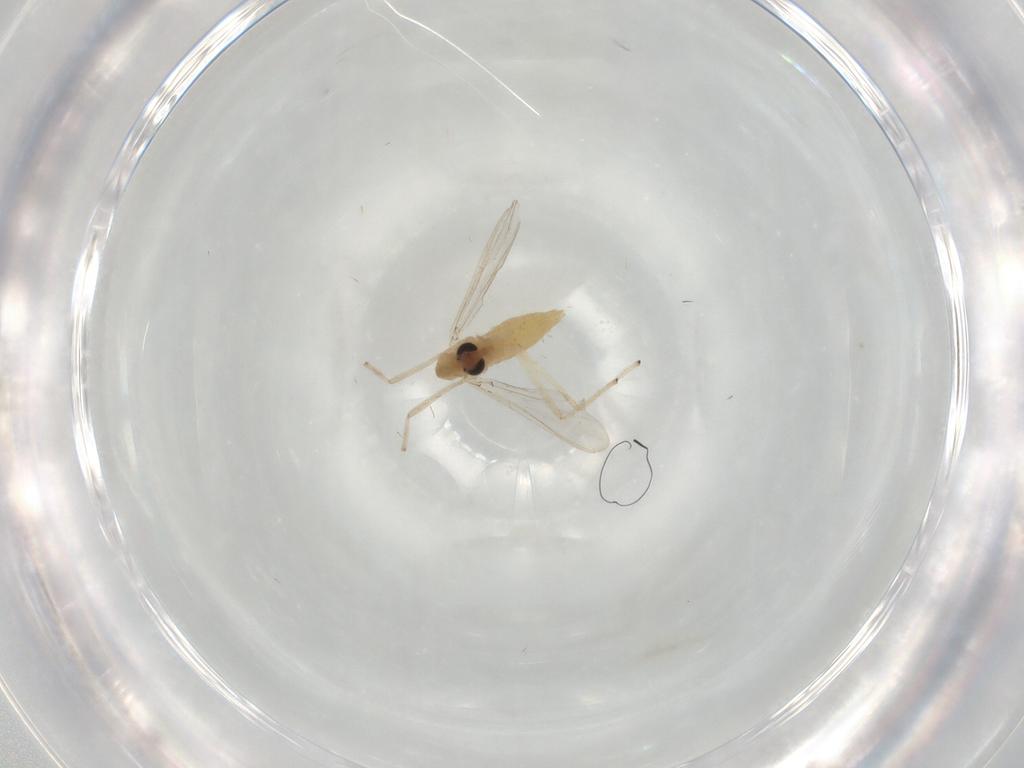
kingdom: Animalia
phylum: Arthropoda
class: Insecta
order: Diptera
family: Chironomidae
